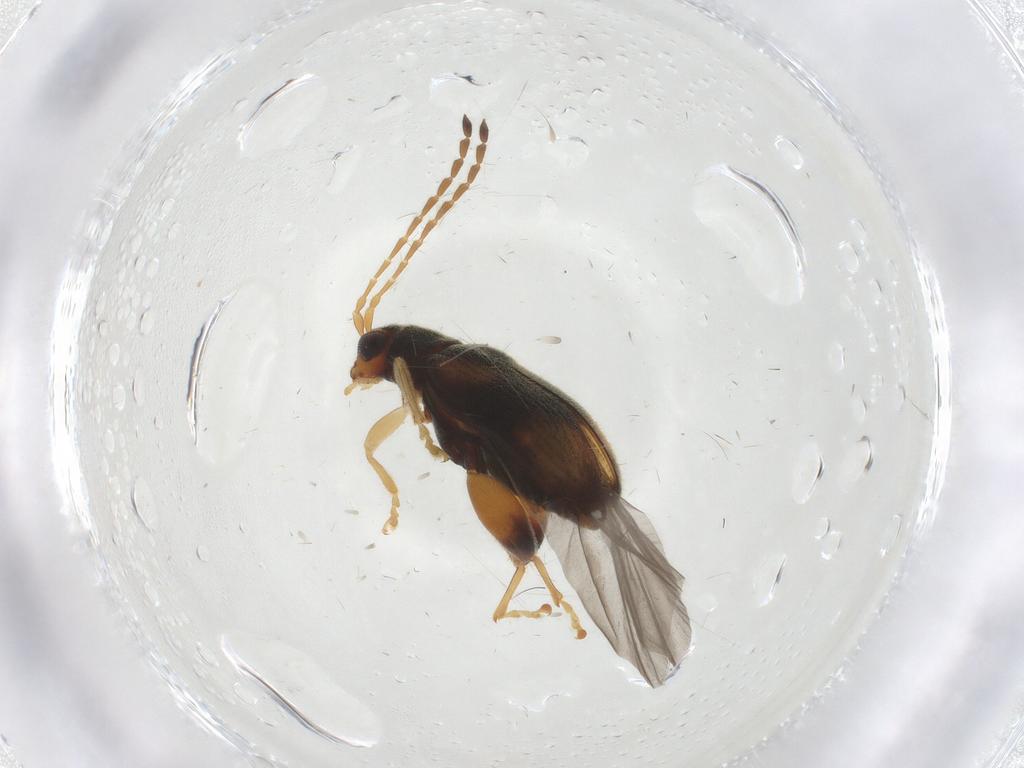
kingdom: Animalia
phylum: Arthropoda
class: Insecta
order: Coleoptera
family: Chrysomelidae
